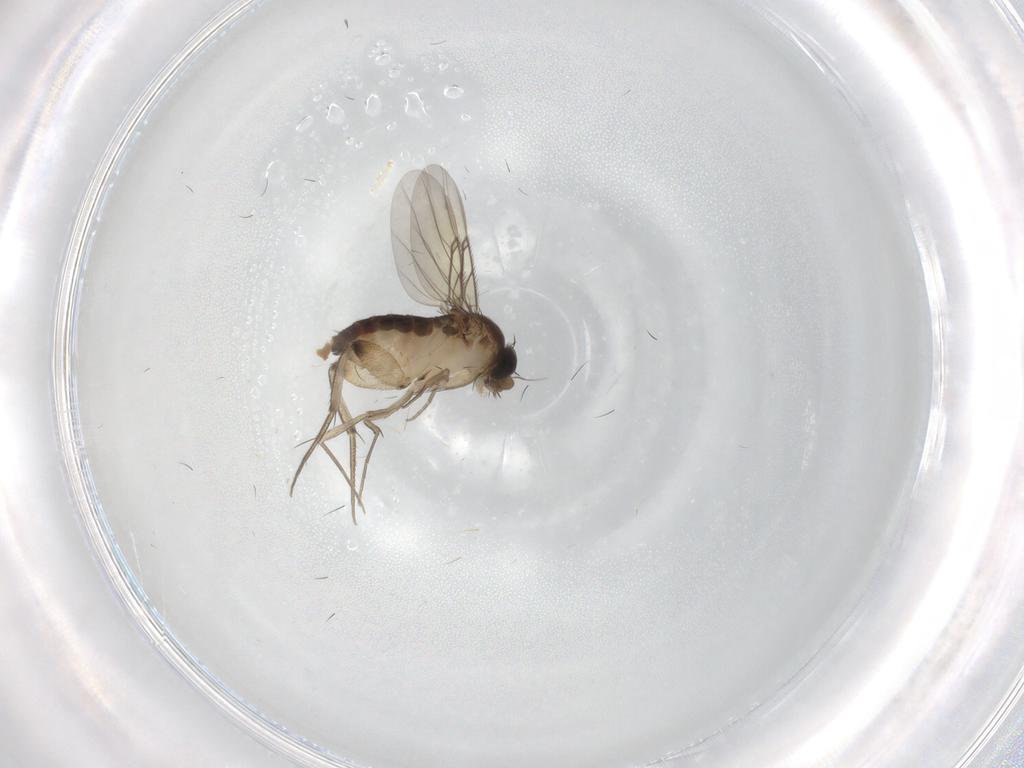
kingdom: Animalia
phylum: Arthropoda
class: Insecta
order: Diptera
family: Phoridae
